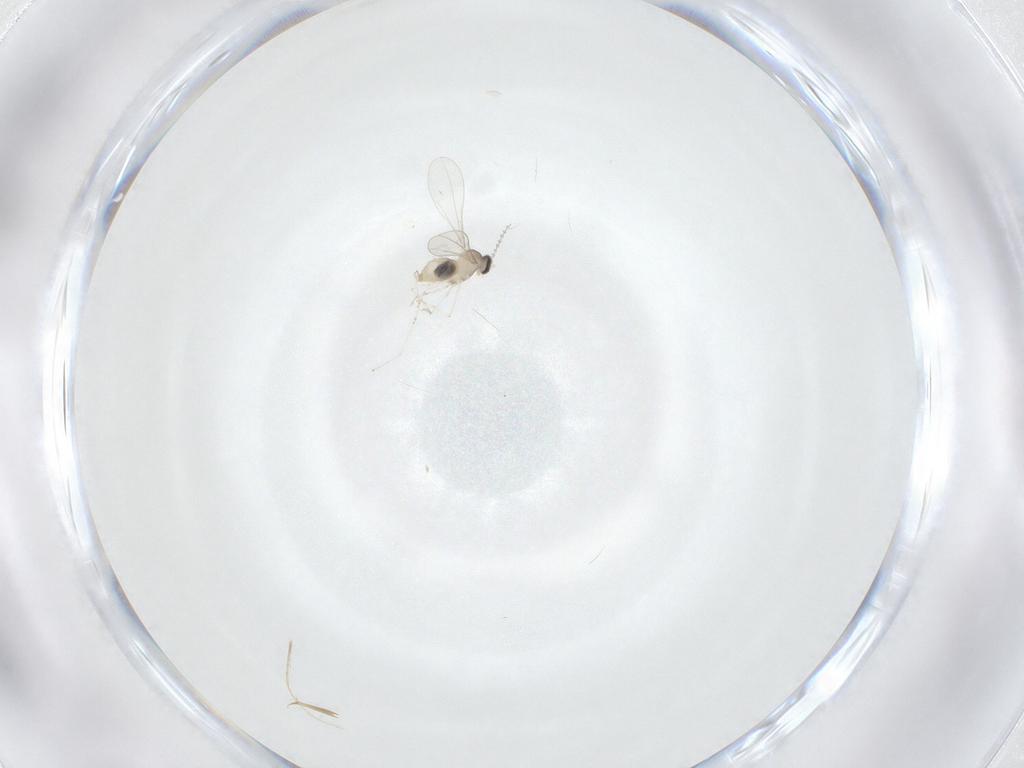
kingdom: Animalia
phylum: Arthropoda
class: Insecta
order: Diptera
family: Psychodidae
